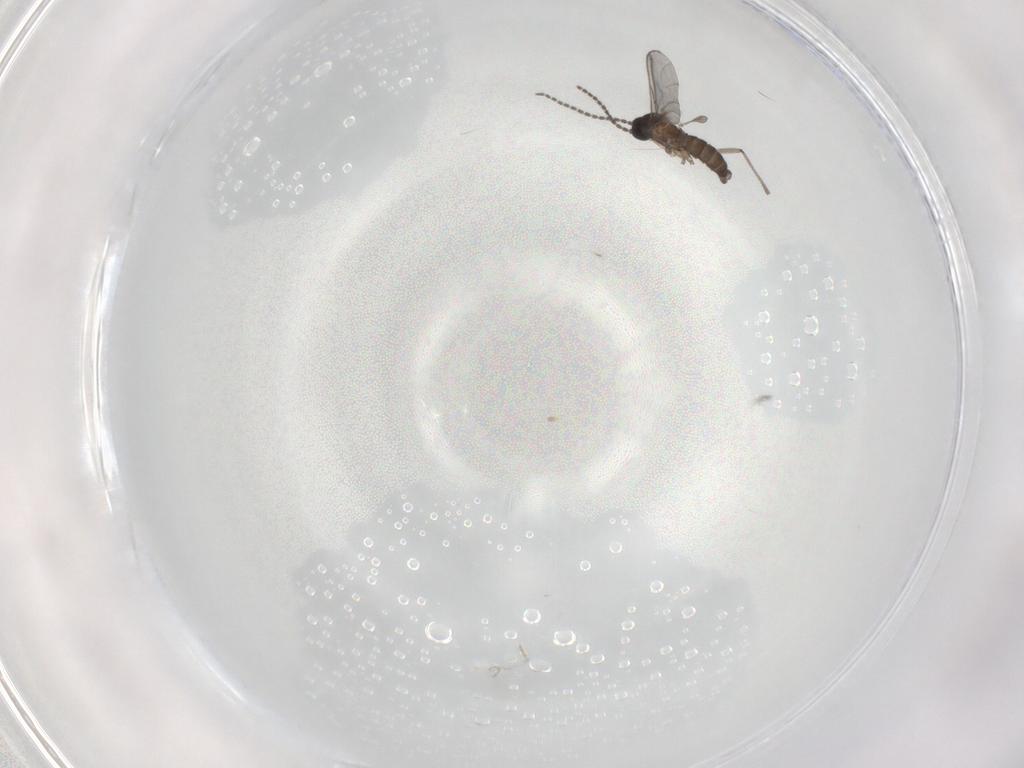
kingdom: Animalia
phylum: Arthropoda
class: Insecta
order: Diptera
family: Sciaridae
